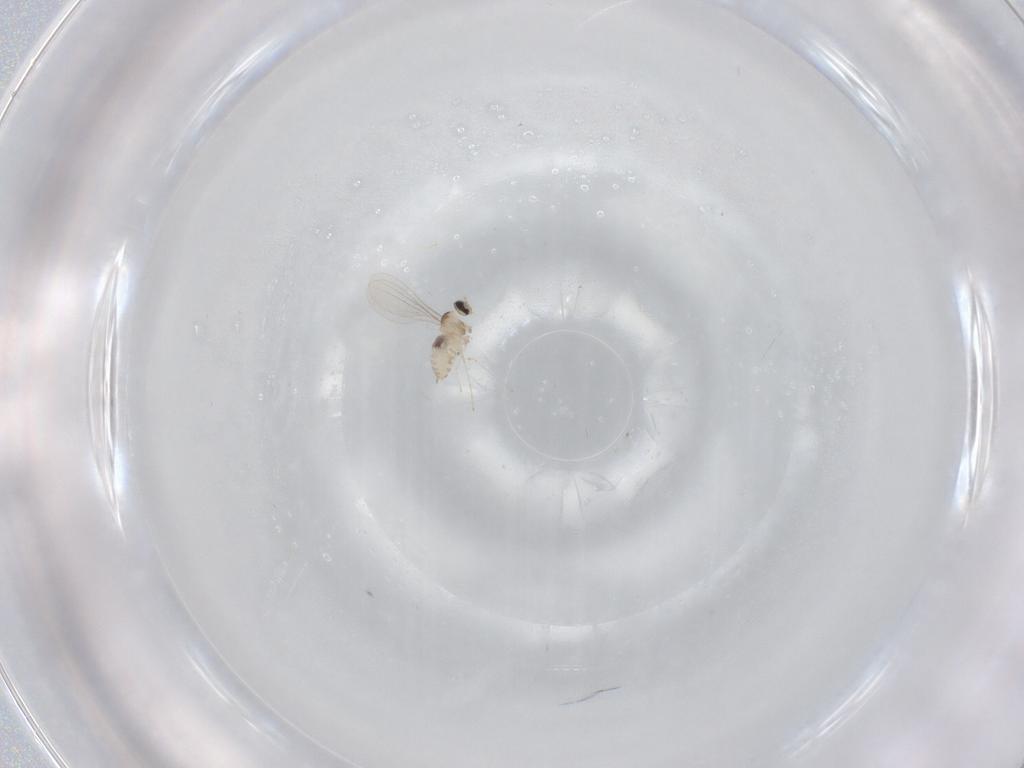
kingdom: Animalia
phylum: Arthropoda
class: Insecta
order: Diptera
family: Cecidomyiidae
